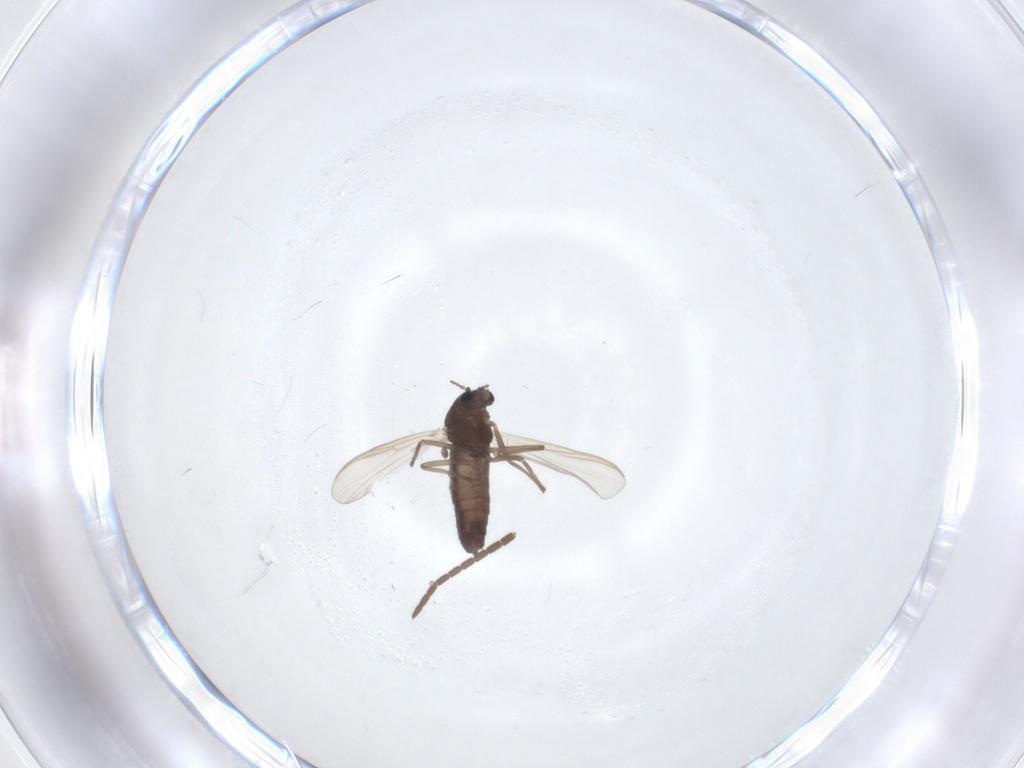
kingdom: Animalia
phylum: Arthropoda
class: Insecta
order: Diptera
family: Mycetophilidae
